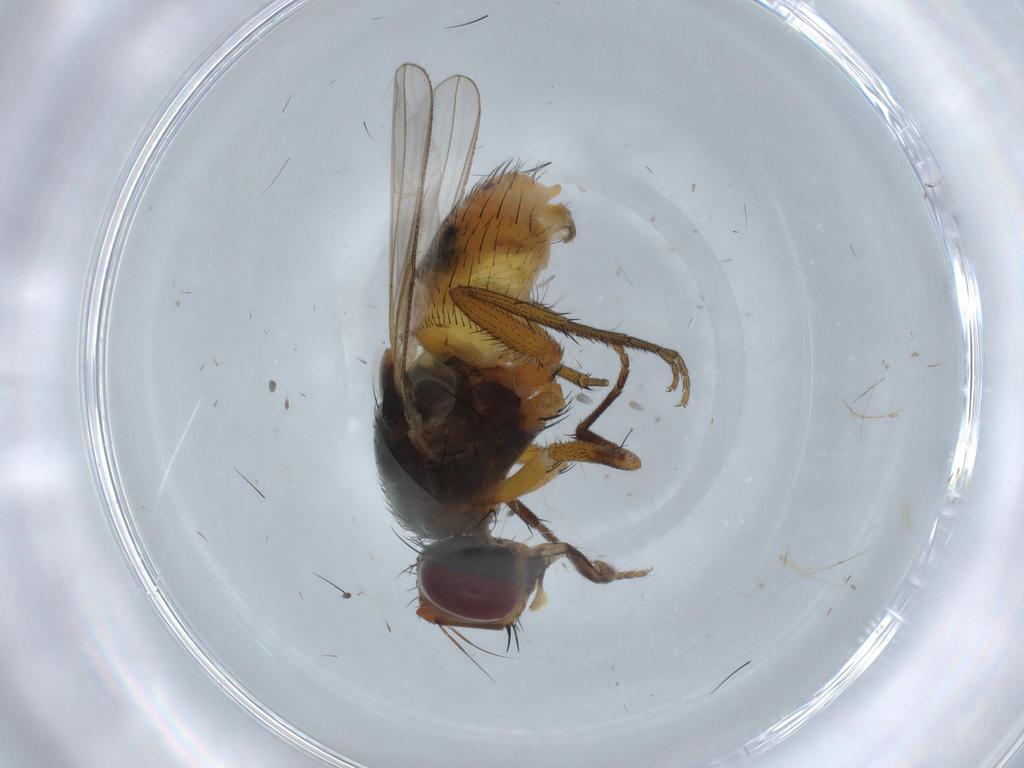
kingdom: Animalia
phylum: Arthropoda
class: Insecta
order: Diptera
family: Muscidae
